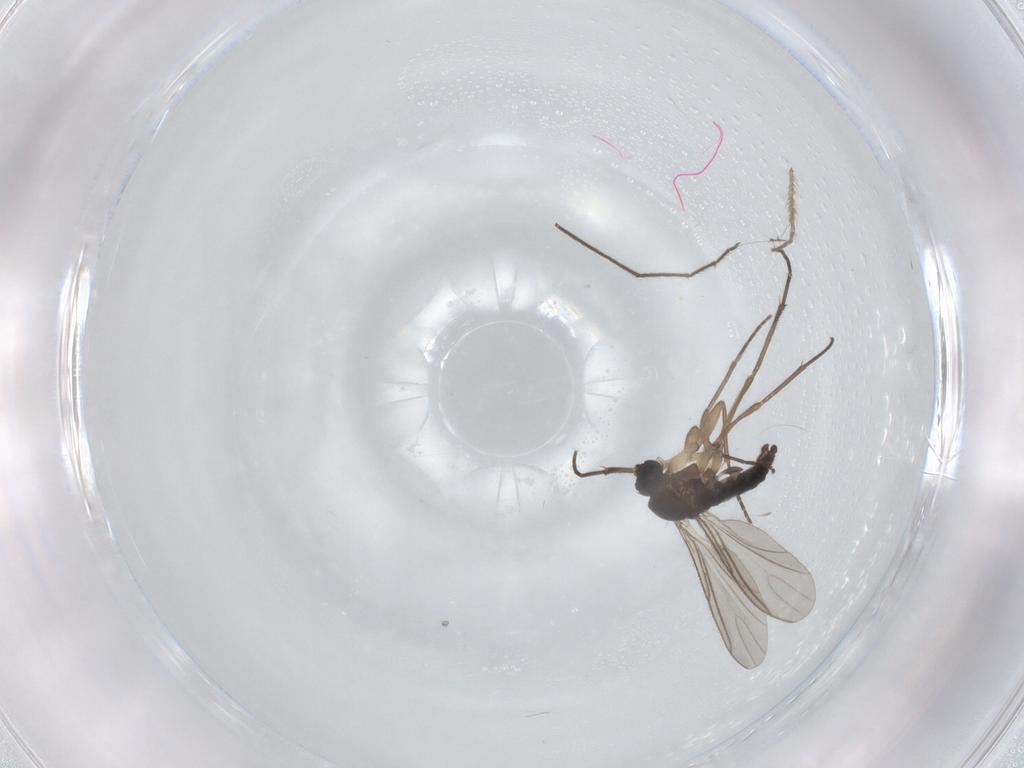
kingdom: Animalia
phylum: Arthropoda
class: Insecta
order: Diptera
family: Chironomidae
